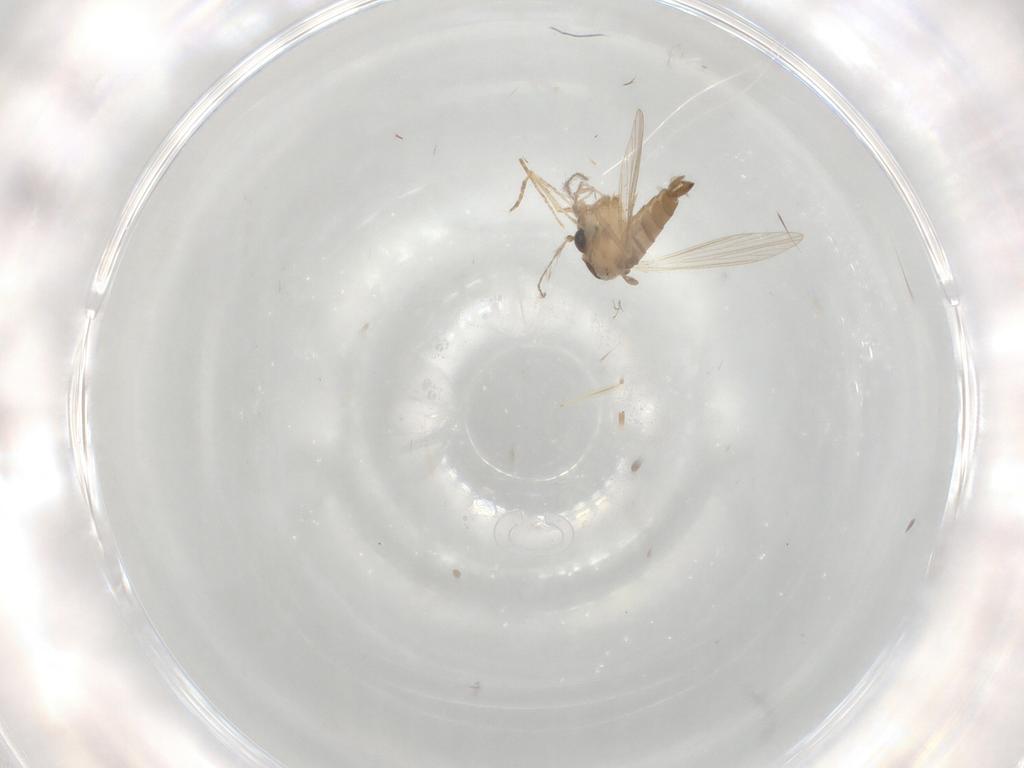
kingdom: Animalia
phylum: Arthropoda
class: Insecta
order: Diptera
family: Psychodidae
